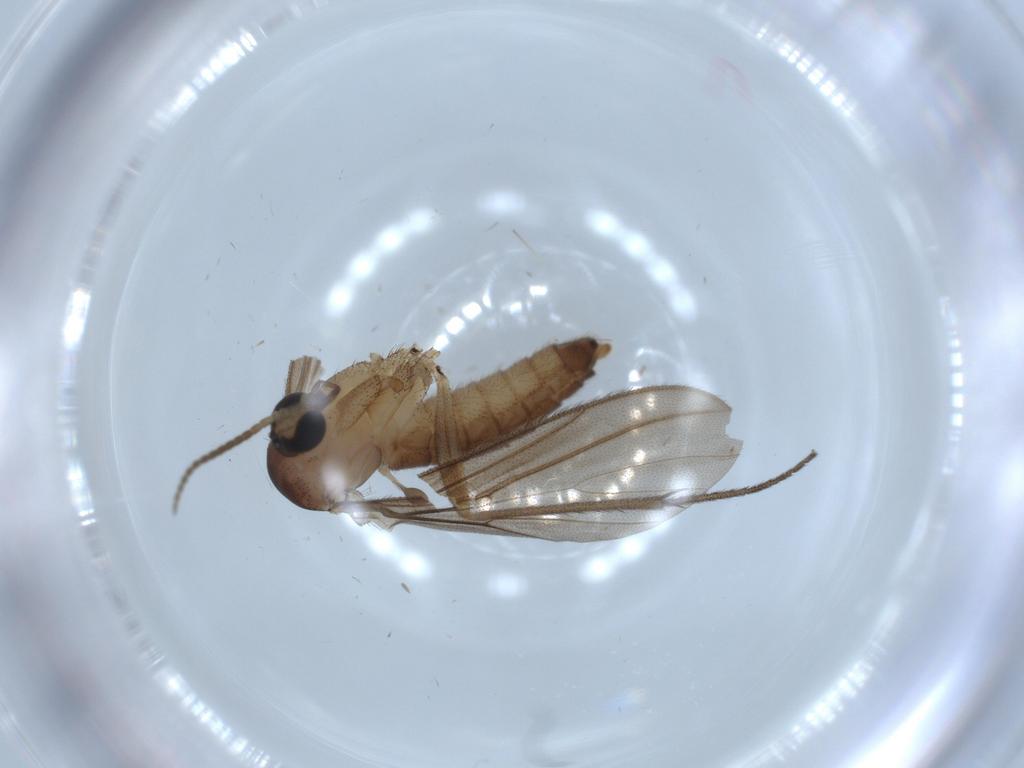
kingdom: Animalia
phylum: Arthropoda
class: Insecta
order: Diptera
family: Diadocidiidae
